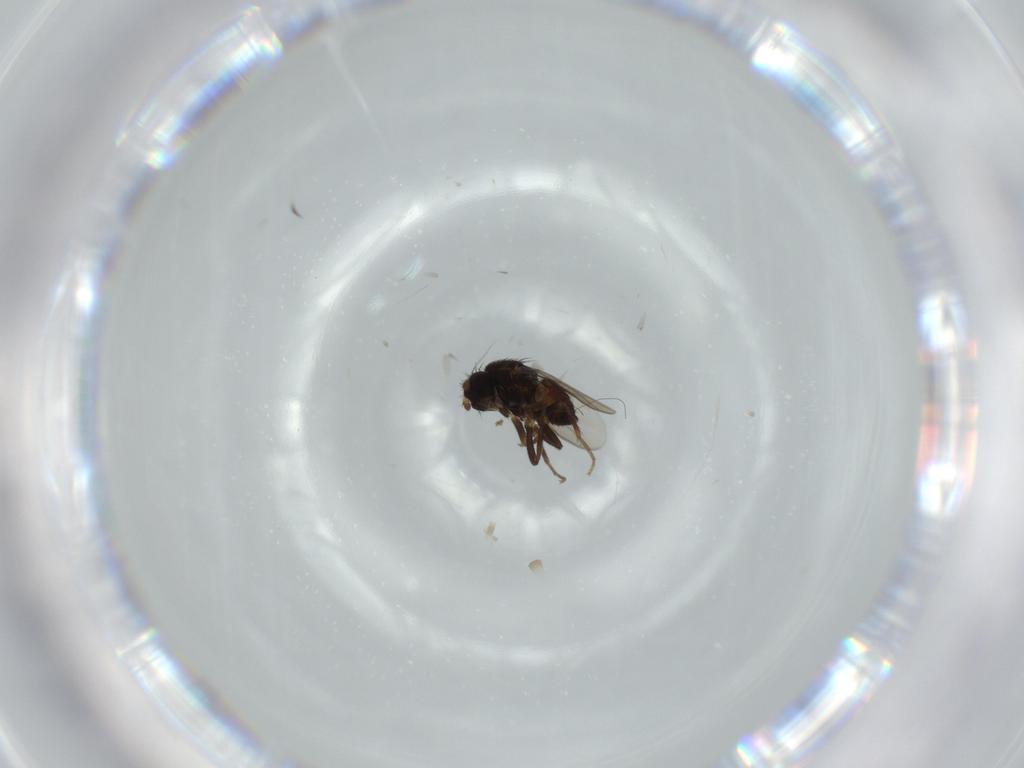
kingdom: Animalia
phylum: Arthropoda
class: Insecta
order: Diptera
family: Sphaeroceridae
